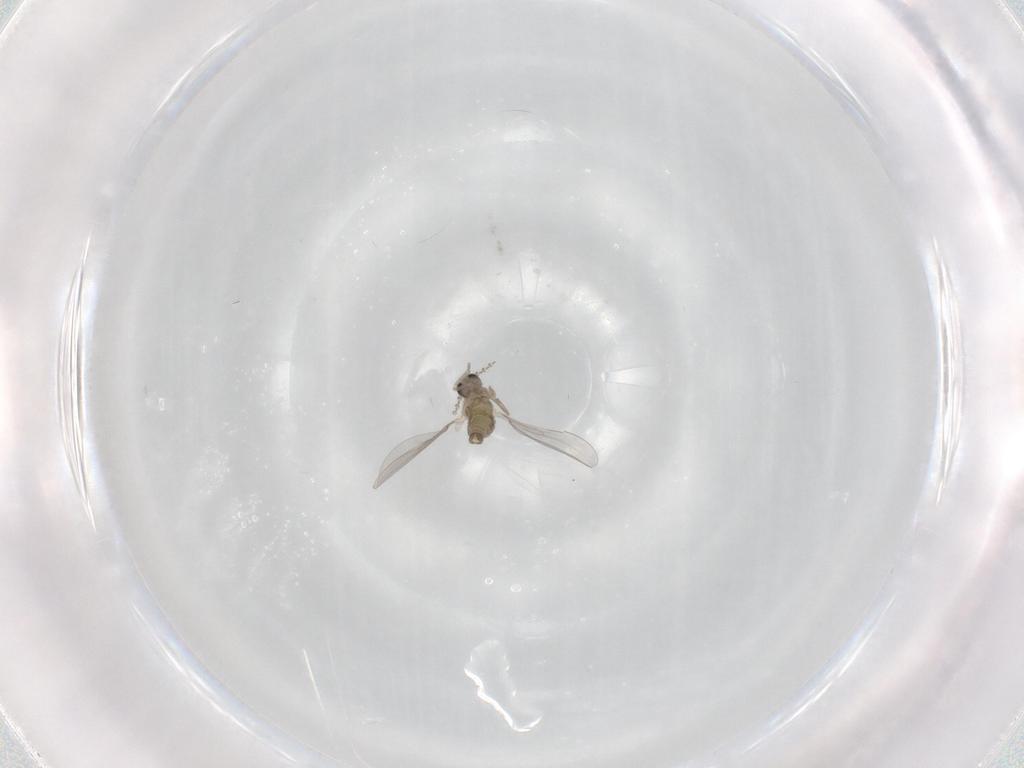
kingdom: Animalia
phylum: Arthropoda
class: Insecta
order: Diptera
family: Cecidomyiidae
